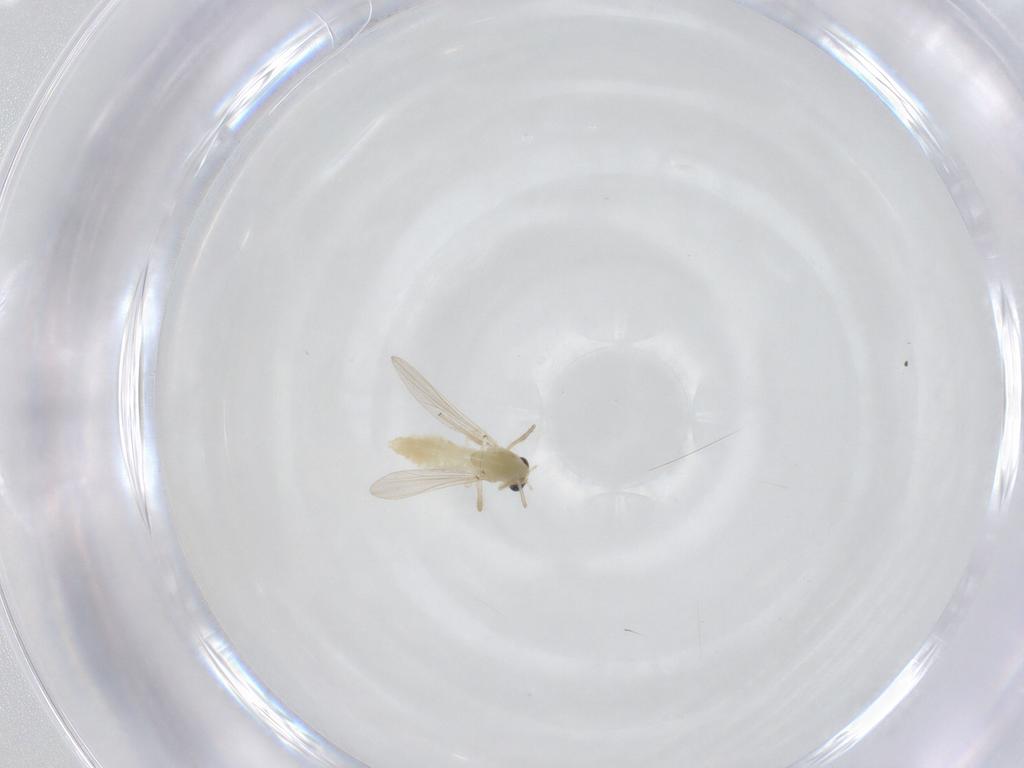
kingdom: Animalia
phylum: Arthropoda
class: Insecta
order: Diptera
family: Chironomidae
